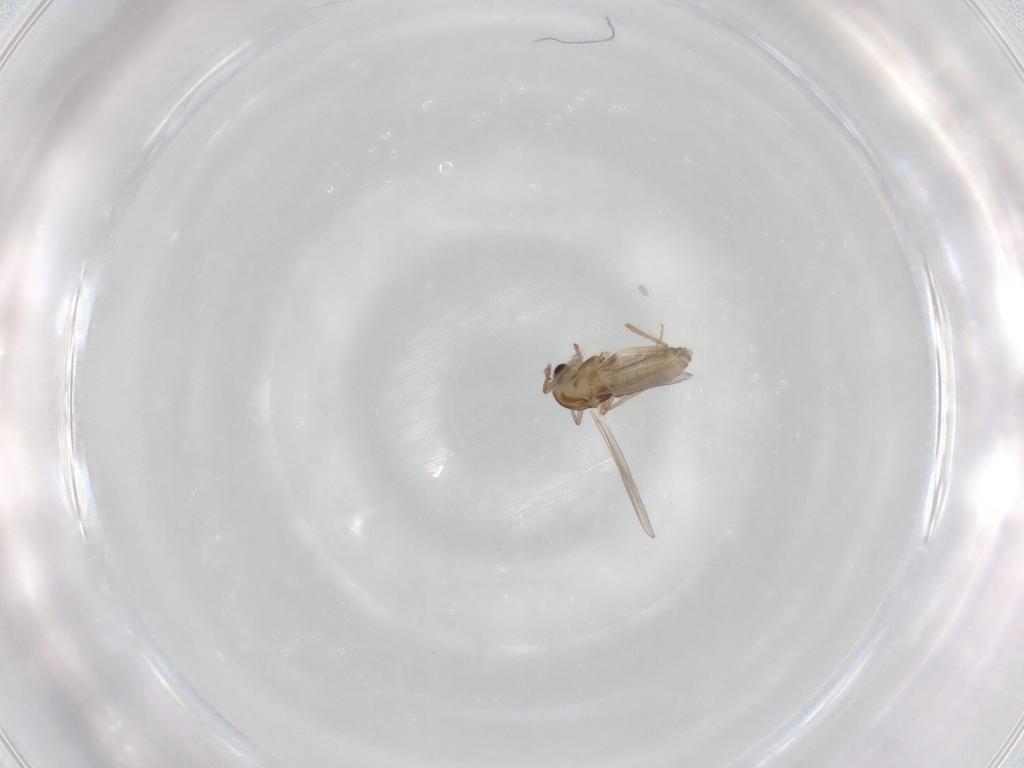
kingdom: Animalia
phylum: Arthropoda
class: Insecta
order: Diptera
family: Chironomidae
